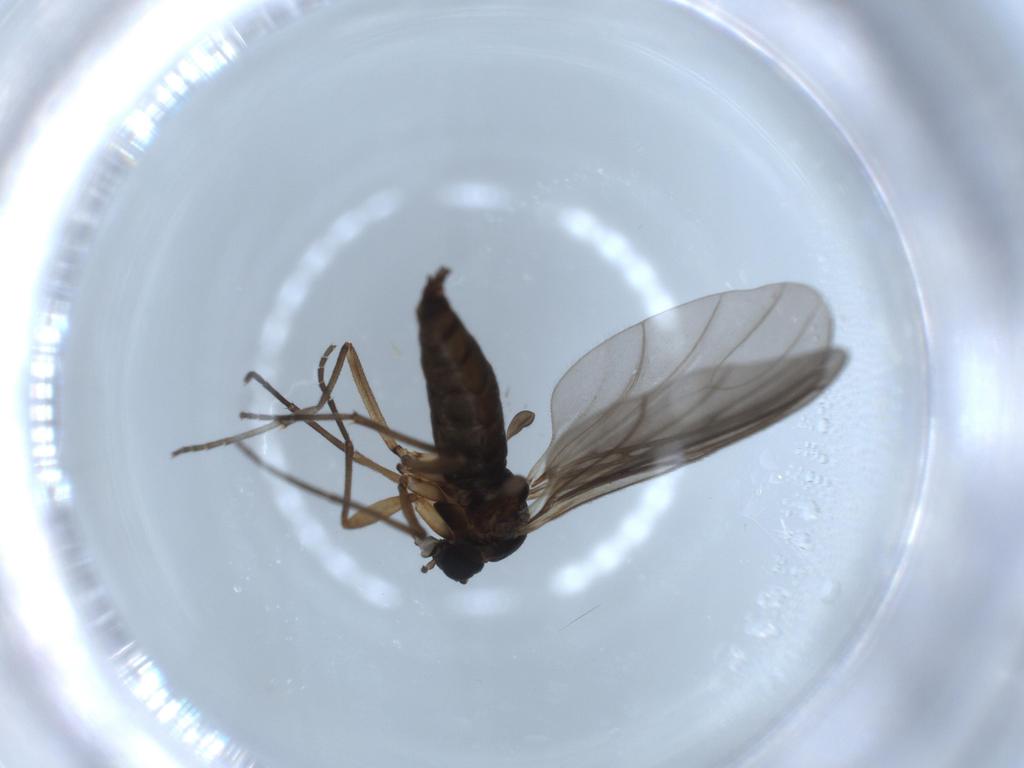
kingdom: Animalia
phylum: Arthropoda
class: Insecta
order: Diptera
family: Sciaridae
